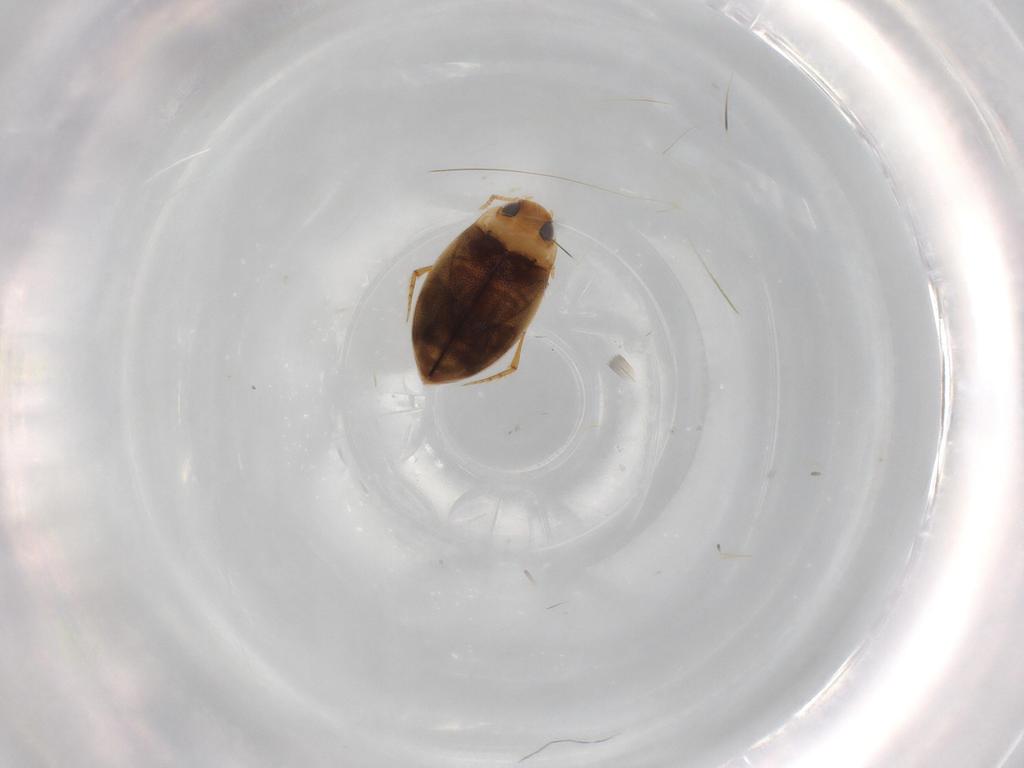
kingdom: Animalia
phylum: Arthropoda
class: Insecta
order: Coleoptera
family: Dytiscidae
